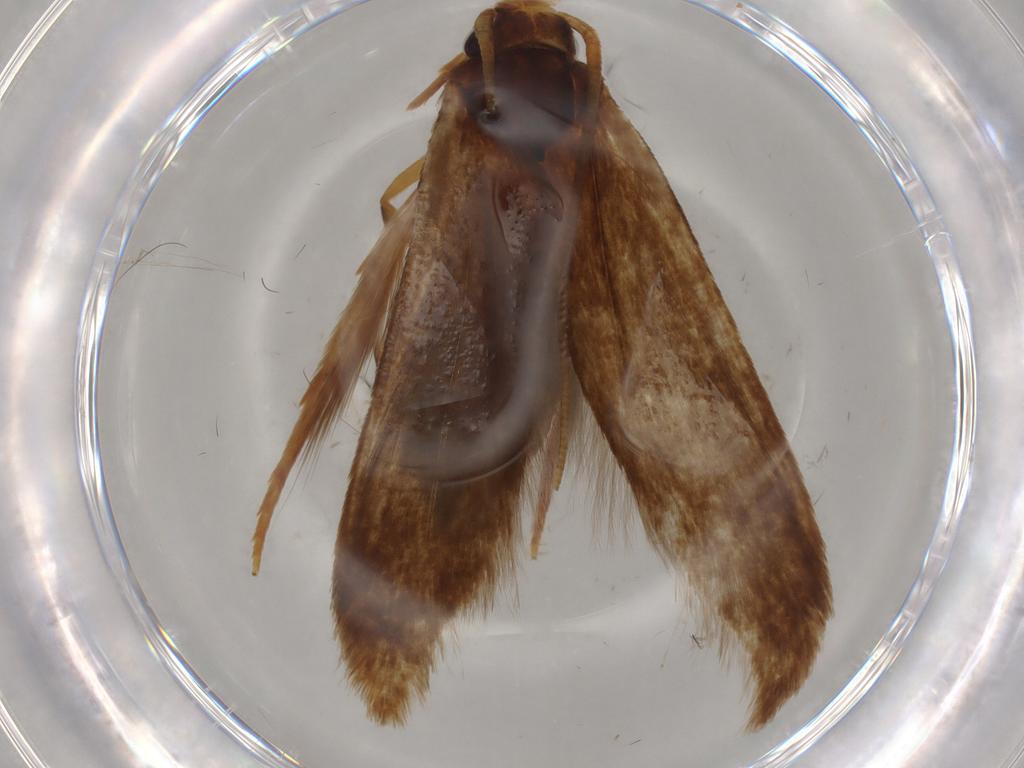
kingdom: Animalia
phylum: Arthropoda
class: Insecta
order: Lepidoptera
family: Tineidae
